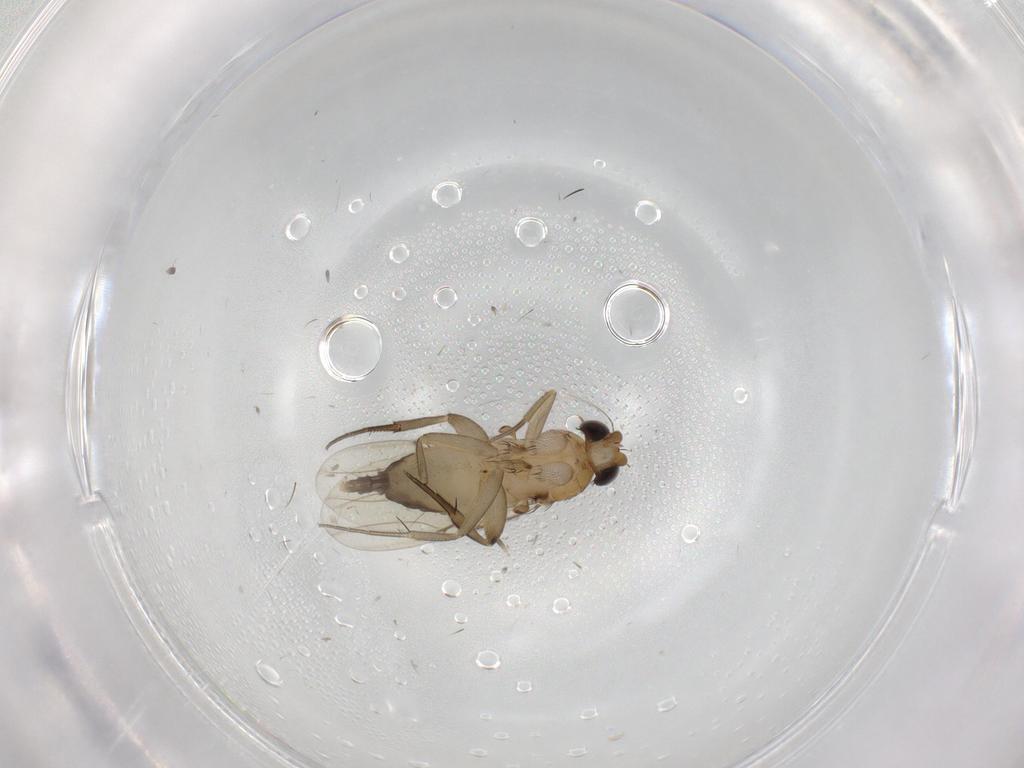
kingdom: Animalia
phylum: Arthropoda
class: Insecta
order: Diptera
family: Phoridae
